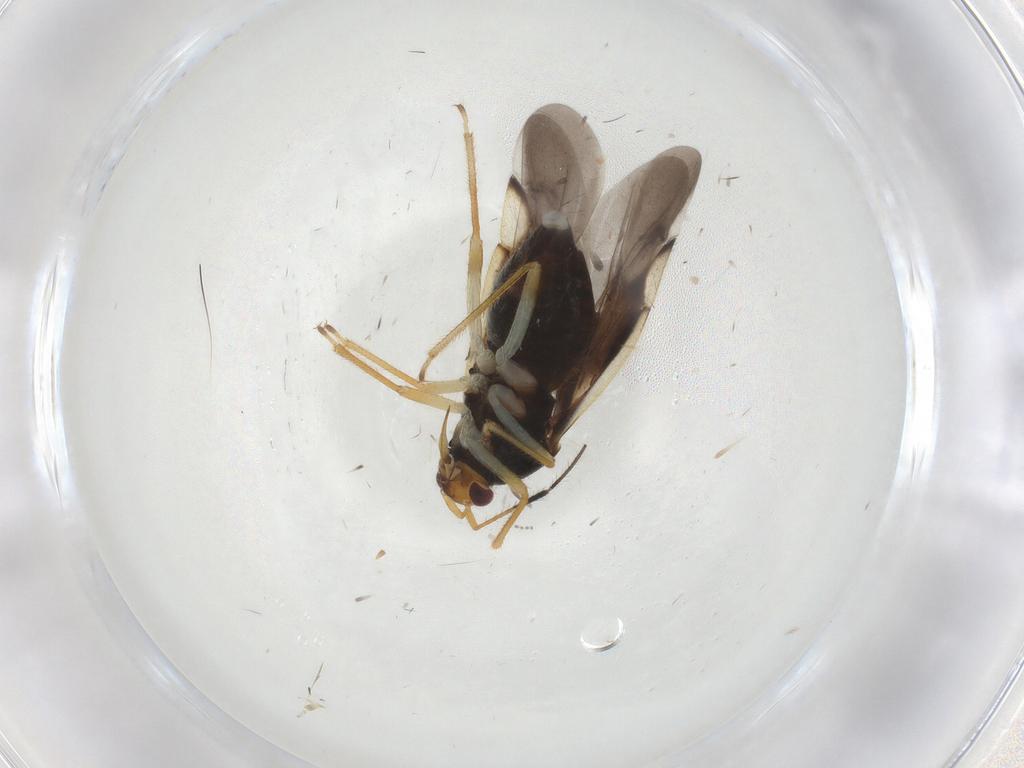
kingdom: Animalia
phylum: Arthropoda
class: Insecta
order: Hemiptera
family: Miridae
